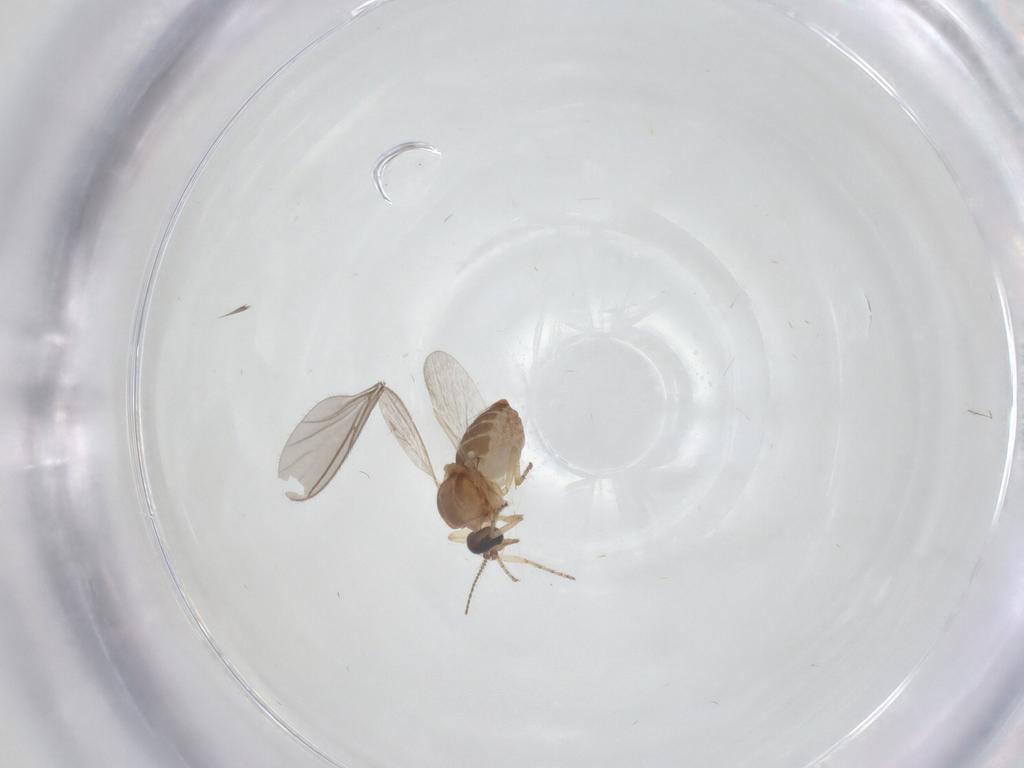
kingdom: Animalia
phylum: Arthropoda
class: Insecta
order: Diptera
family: Ceratopogonidae
